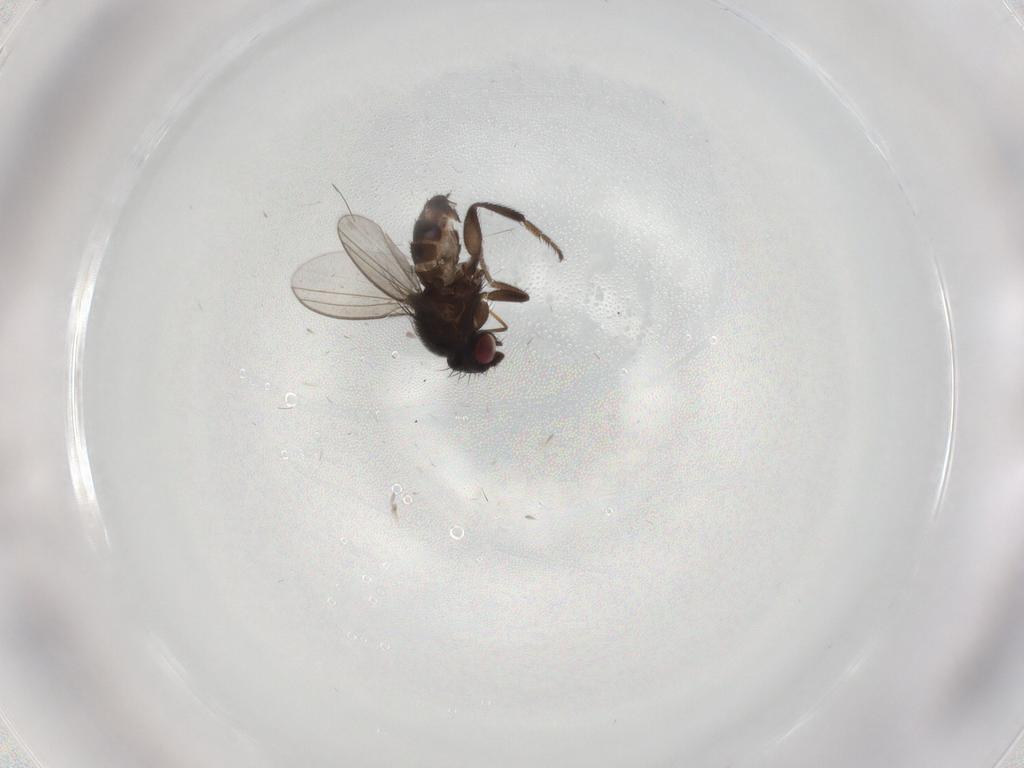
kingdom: Animalia
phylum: Arthropoda
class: Insecta
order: Diptera
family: Milichiidae
